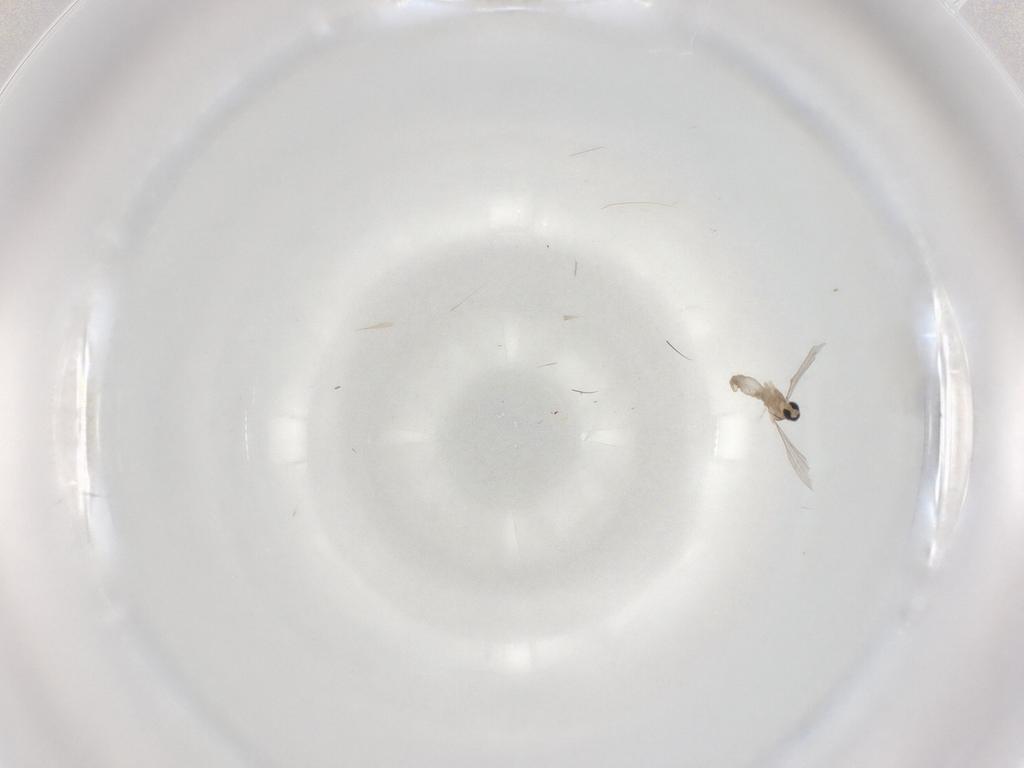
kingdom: Animalia
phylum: Arthropoda
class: Insecta
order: Diptera
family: Cecidomyiidae
